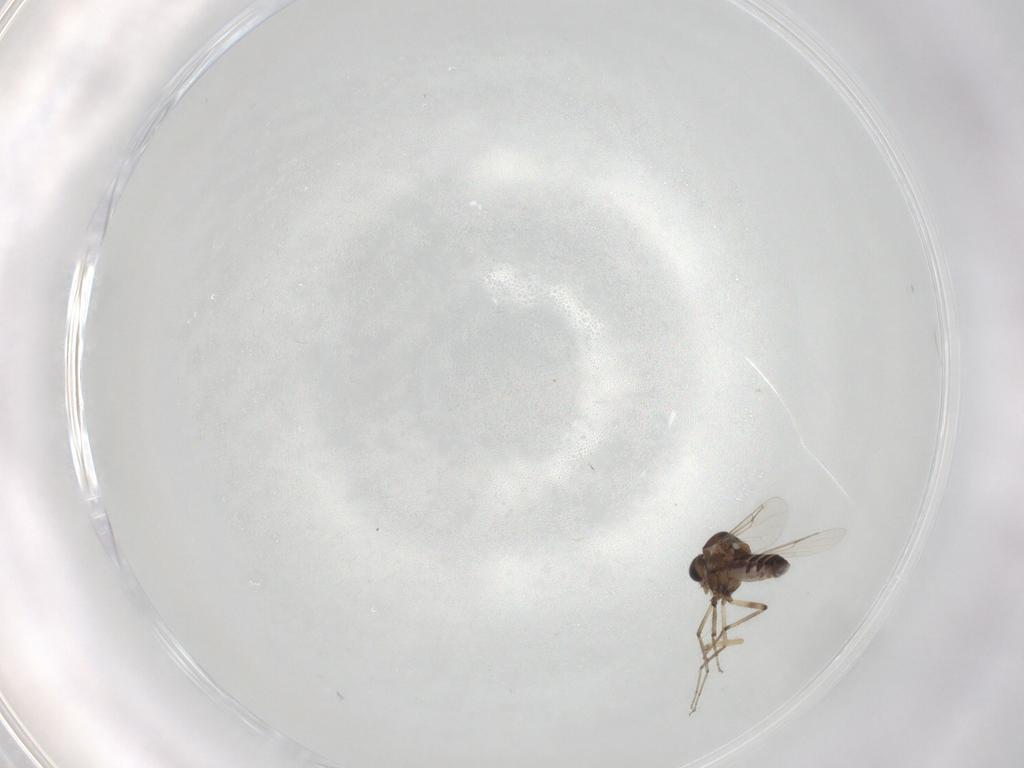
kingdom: Animalia
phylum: Arthropoda
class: Insecta
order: Diptera
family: Ceratopogonidae
